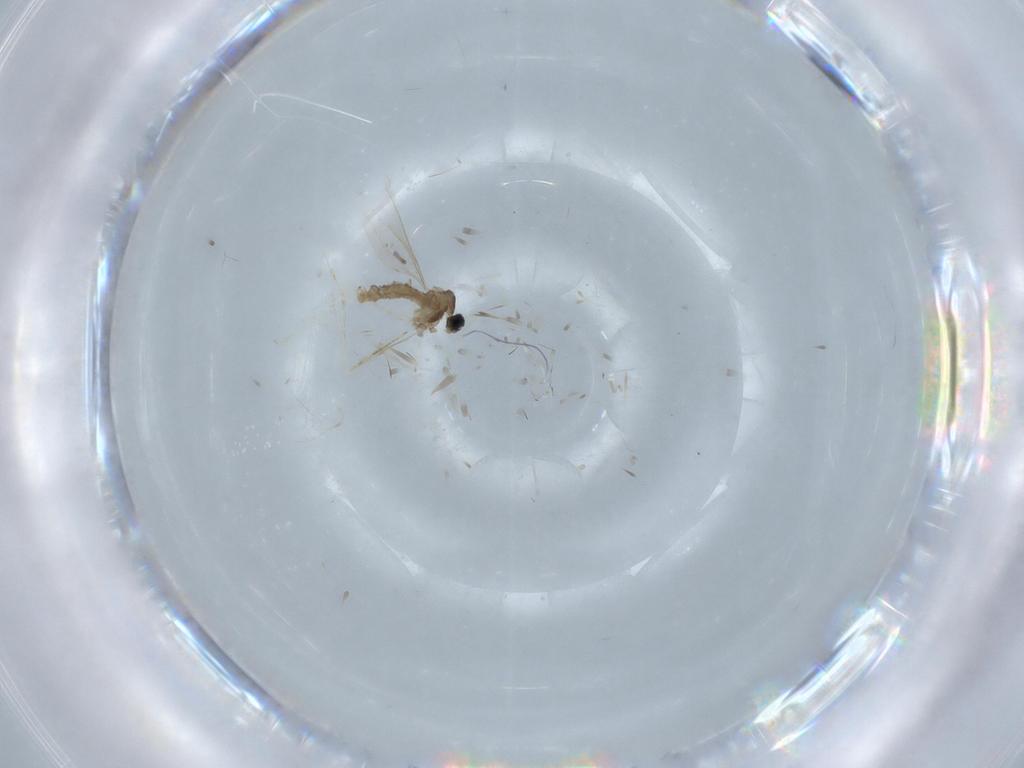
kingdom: Animalia
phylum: Arthropoda
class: Insecta
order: Diptera
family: Cecidomyiidae
